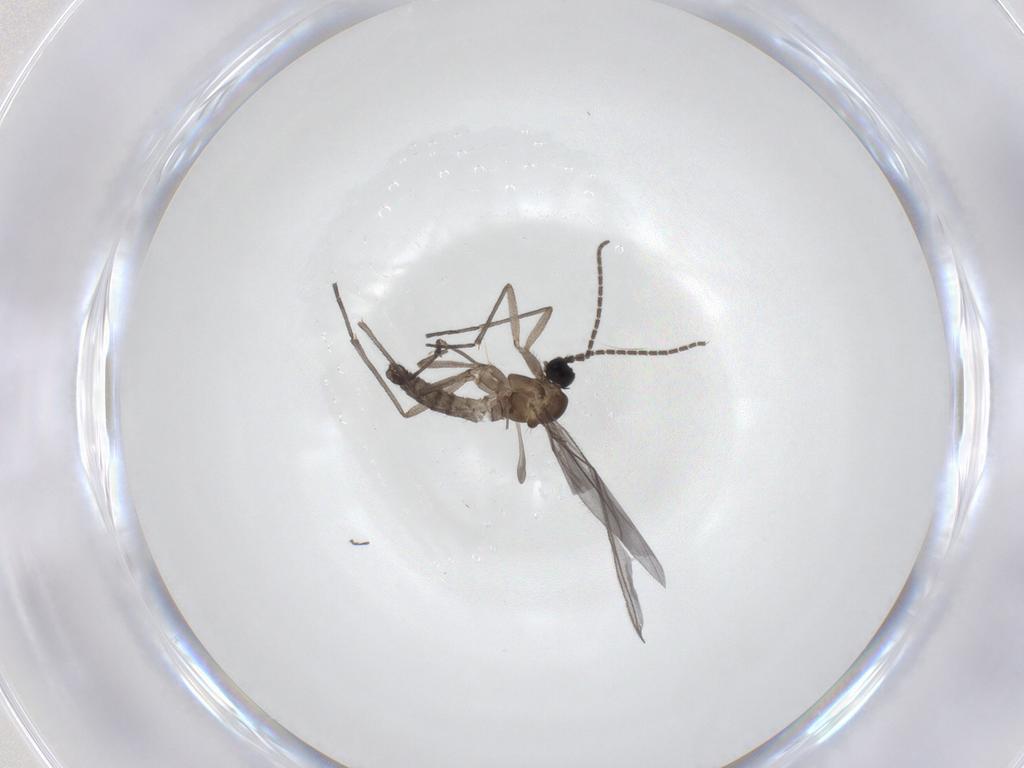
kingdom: Animalia
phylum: Arthropoda
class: Insecta
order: Diptera
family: Sciaridae
